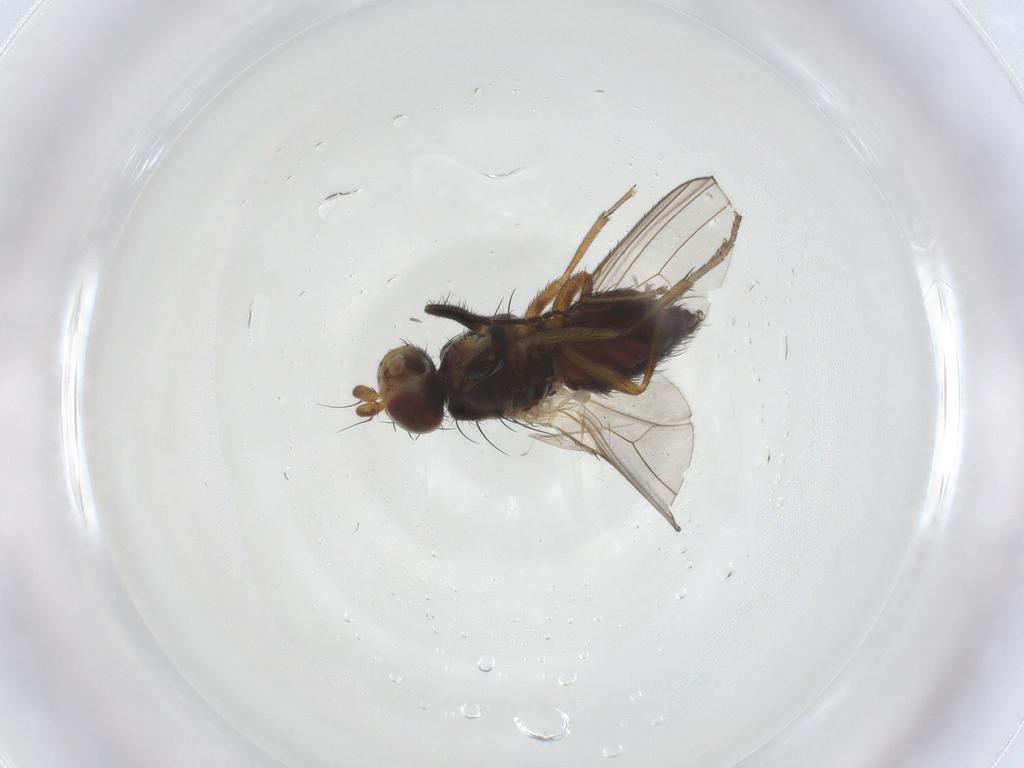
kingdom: Animalia
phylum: Arthropoda
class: Insecta
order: Diptera
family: Heleomyzidae
